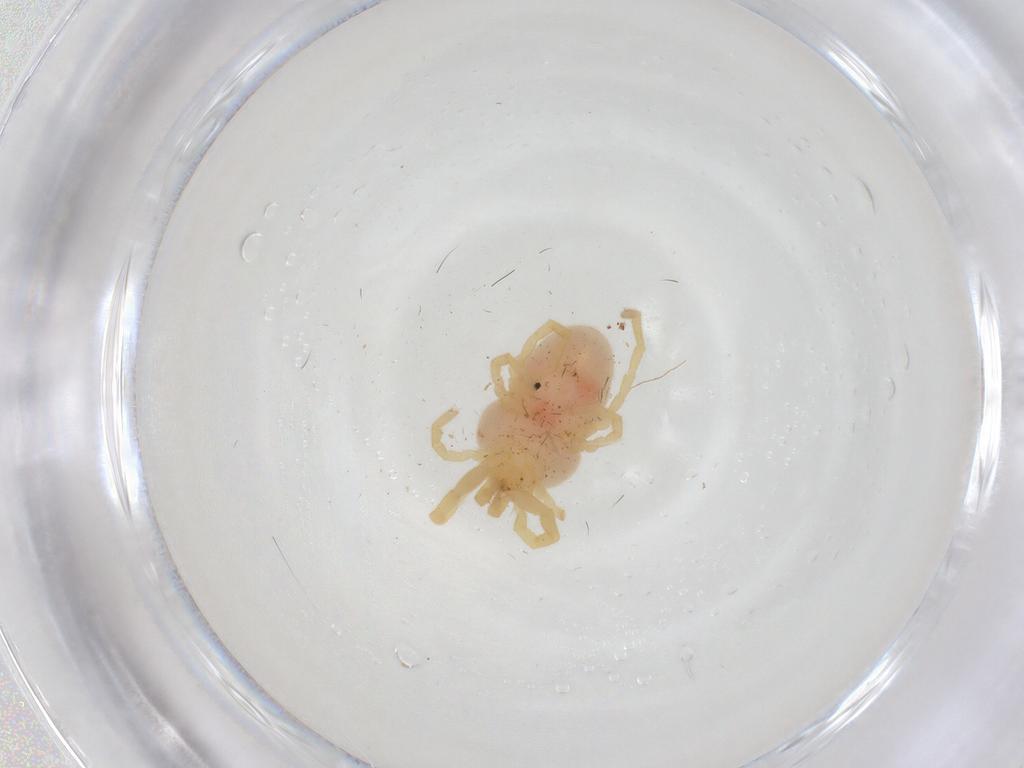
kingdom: Animalia
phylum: Arthropoda
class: Arachnida
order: Trombidiformes
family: Podothrombiidae
